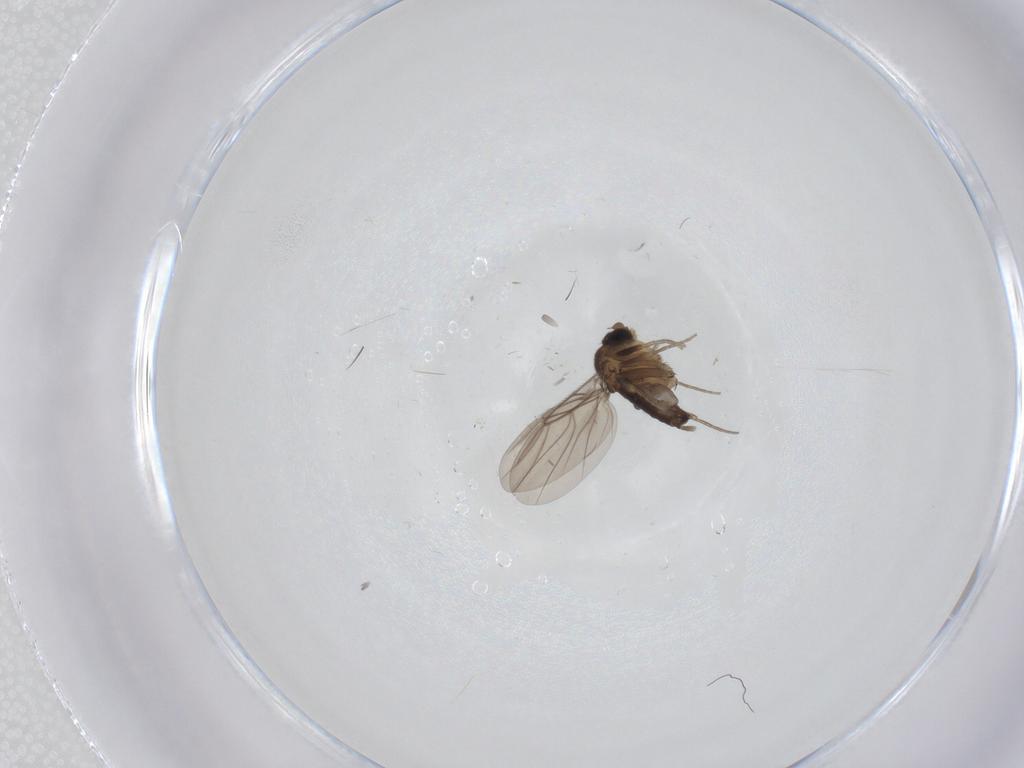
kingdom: Animalia
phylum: Arthropoda
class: Insecta
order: Diptera
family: Phoridae
